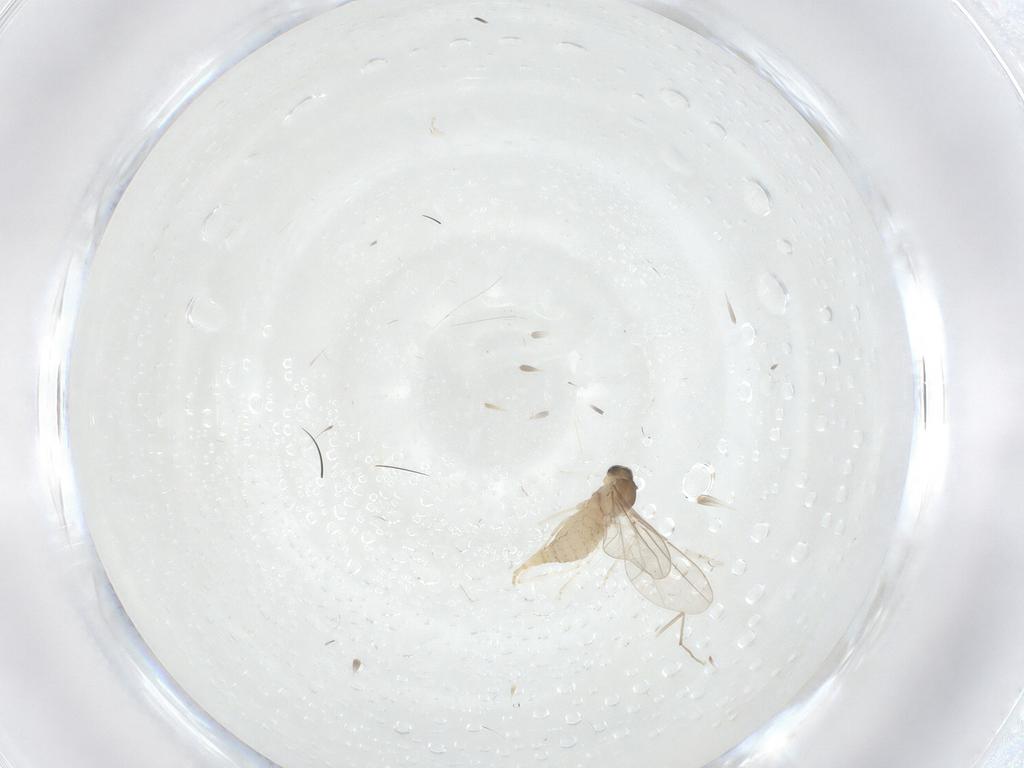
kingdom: Animalia
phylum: Arthropoda
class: Insecta
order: Diptera
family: Cecidomyiidae
